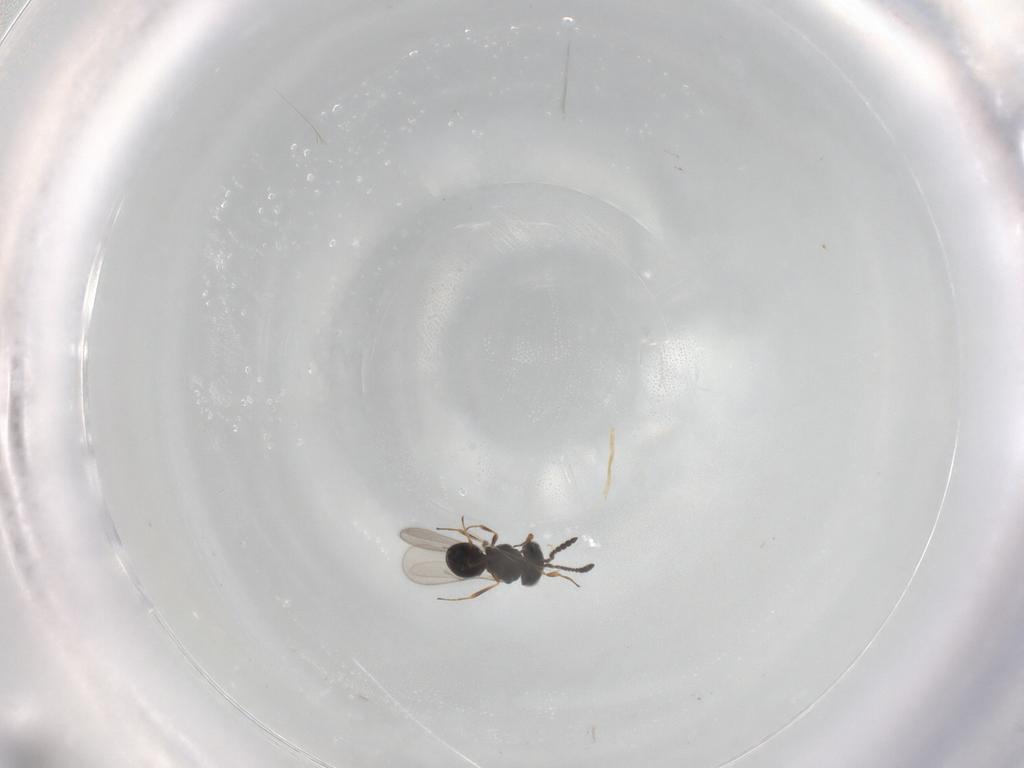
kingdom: Animalia
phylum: Arthropoda
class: Insecta
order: Hymenoptera
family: Scelionidae
